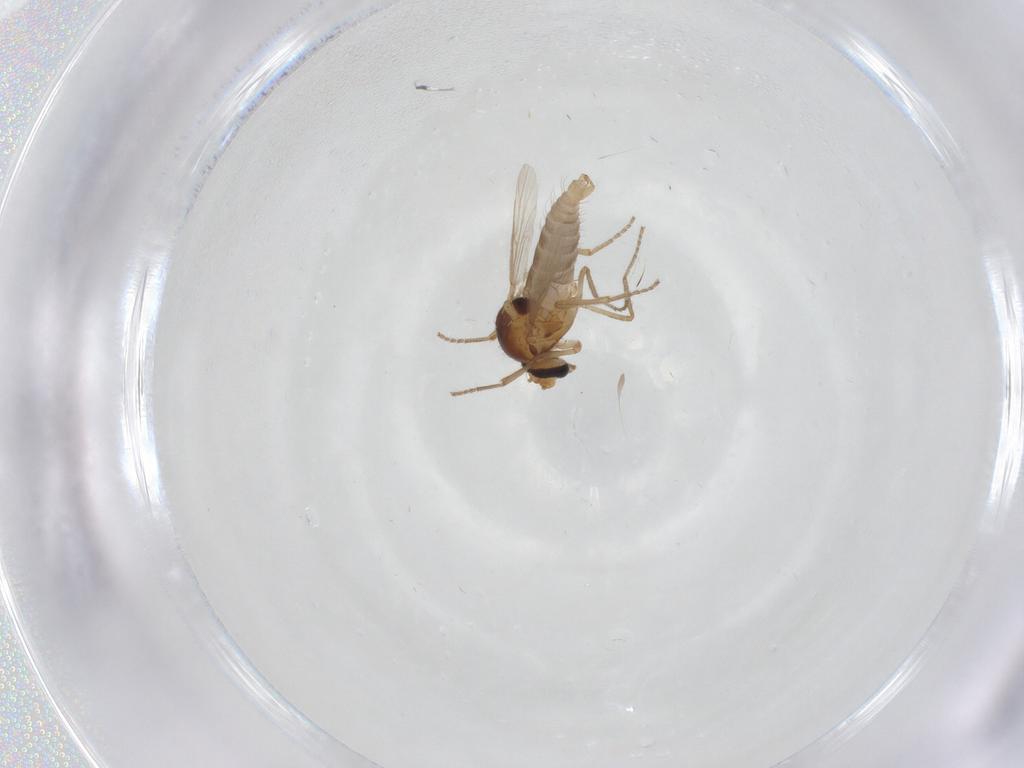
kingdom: Animalia
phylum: Arthropoda
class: Insecta
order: Diptera
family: Ceratopogonidae
